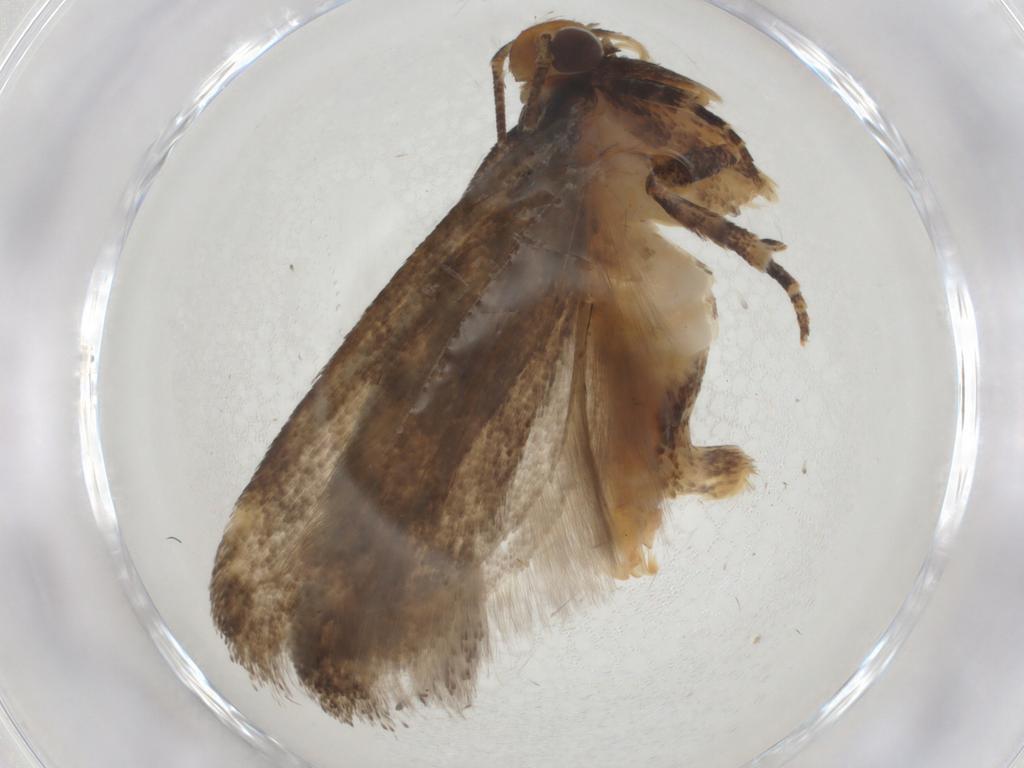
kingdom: Animalia
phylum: Arthropoda
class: Insecta
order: Lepidoptera
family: Gelechiidae
